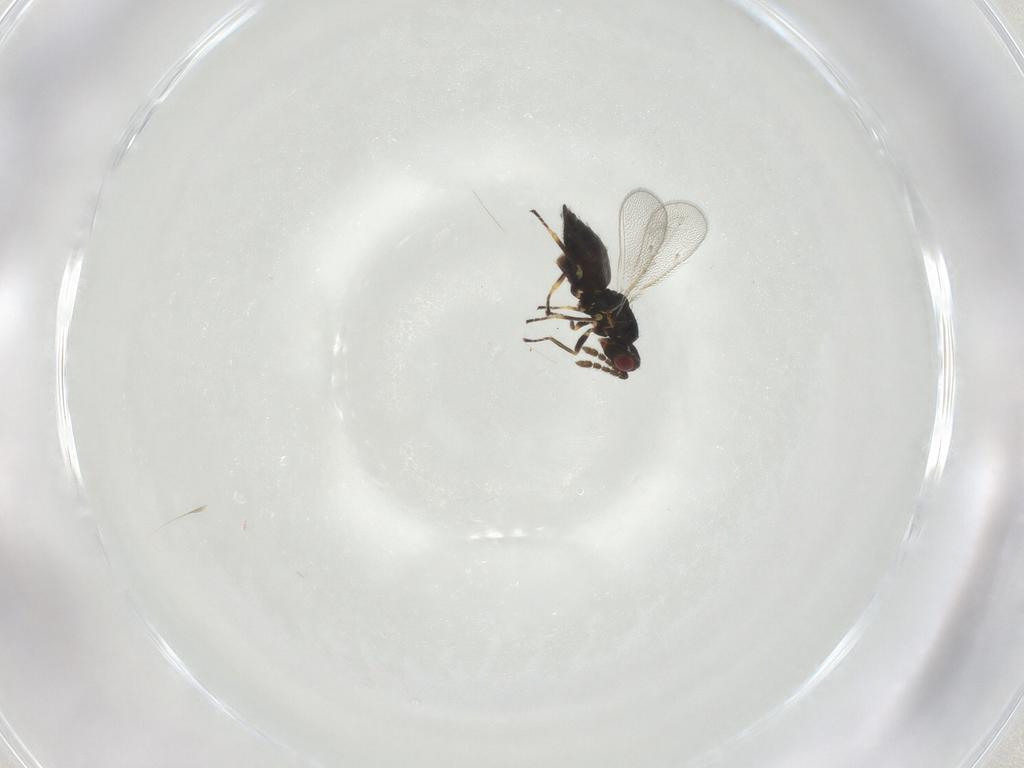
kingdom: Animalia
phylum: Arthropoda
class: Insecta
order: Hymenoptera
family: Eulophidae
